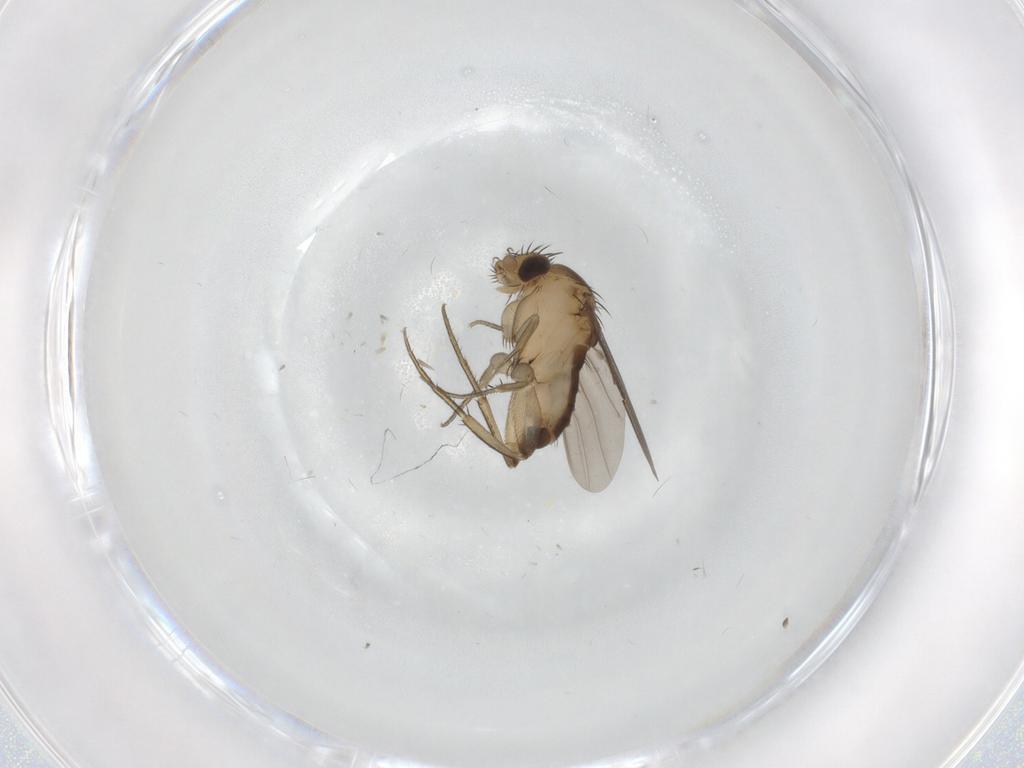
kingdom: Animalia
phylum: Arthropoda
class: Insecta
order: Diptera
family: Phoridae
